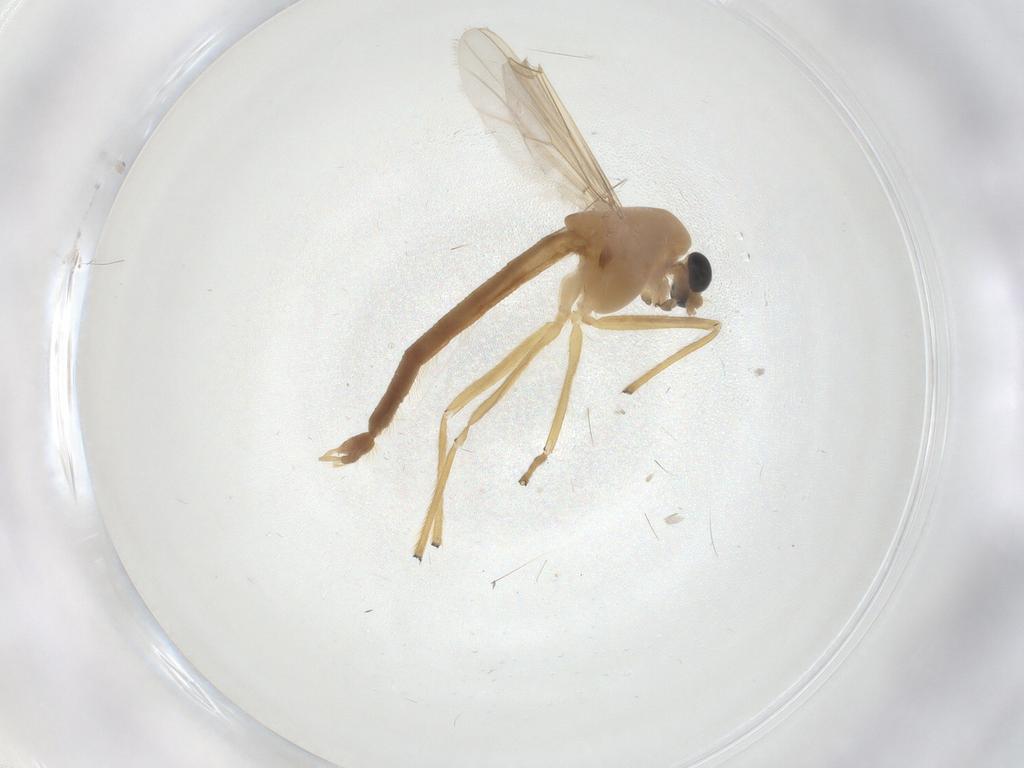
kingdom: Animalia
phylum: Arthropoda
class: Insecta
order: Diptera
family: Chironomidae
